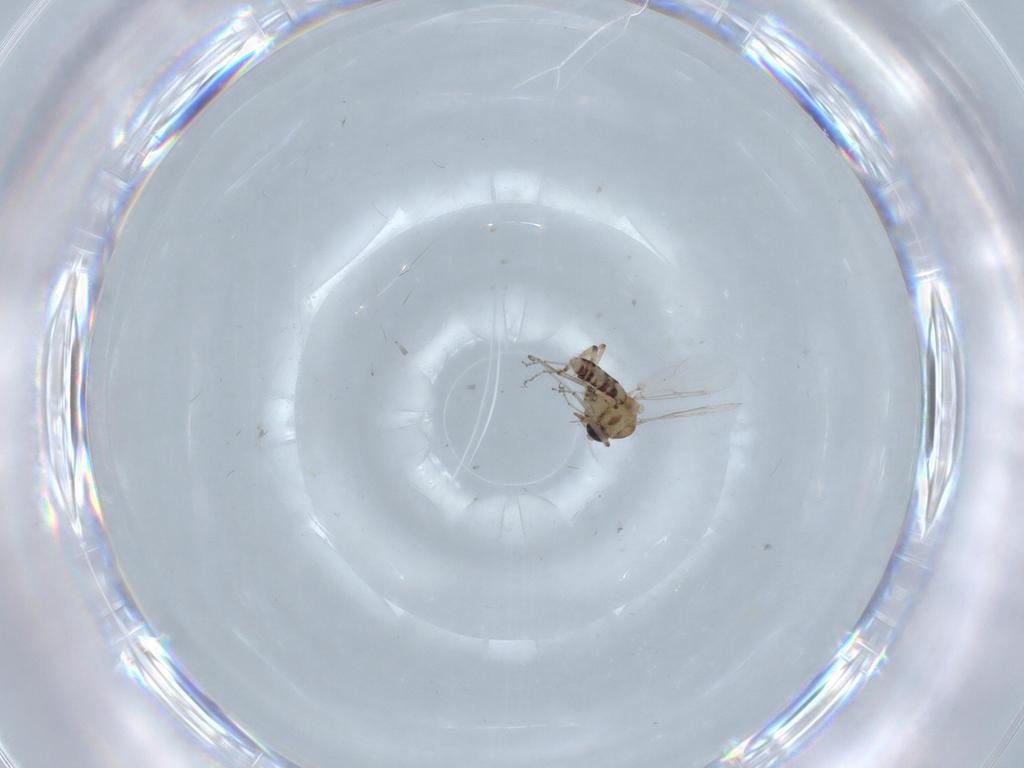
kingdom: Animalia
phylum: Arthropoda
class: Insecta
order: Diptera
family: Ceratopogonidae
